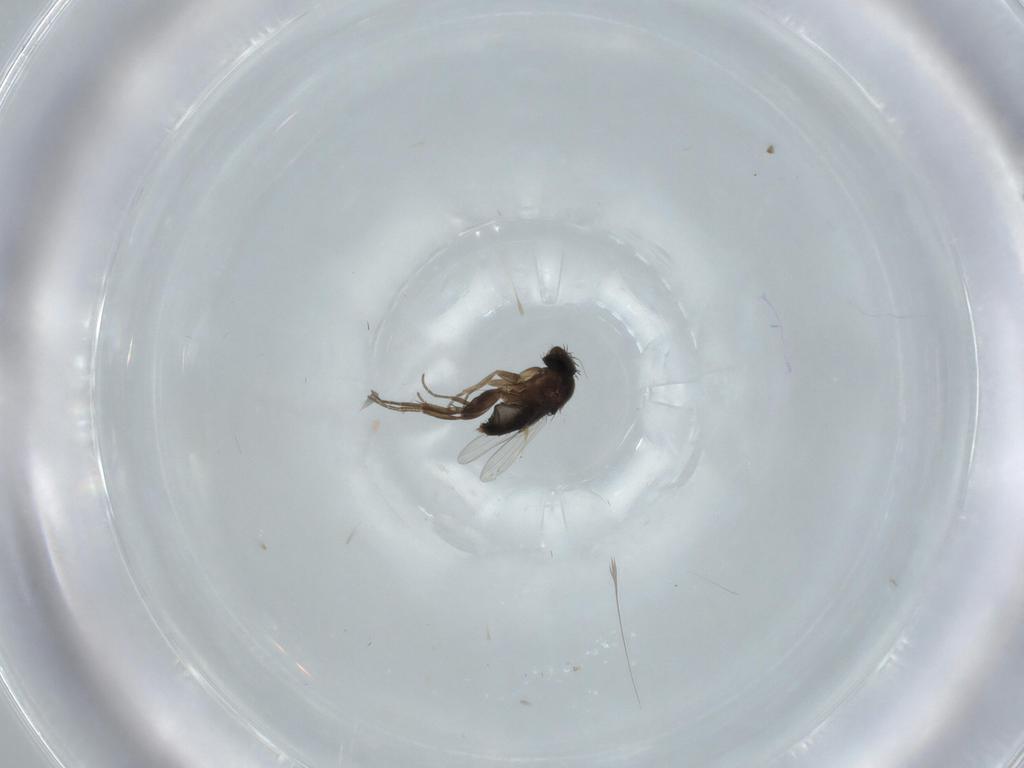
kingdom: Animalia
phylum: Arthropoda
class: Insecta
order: Diptera
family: Phoridae
